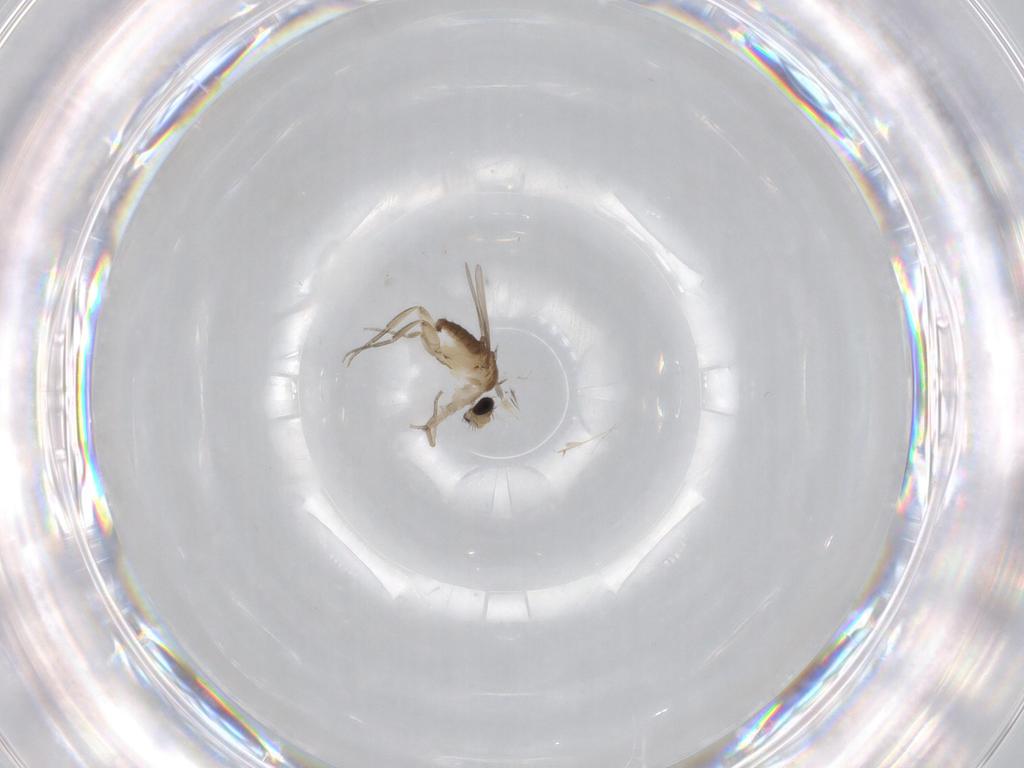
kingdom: Animalia
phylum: Arthropoda
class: Insecta
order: Diptera
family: Phoridae
